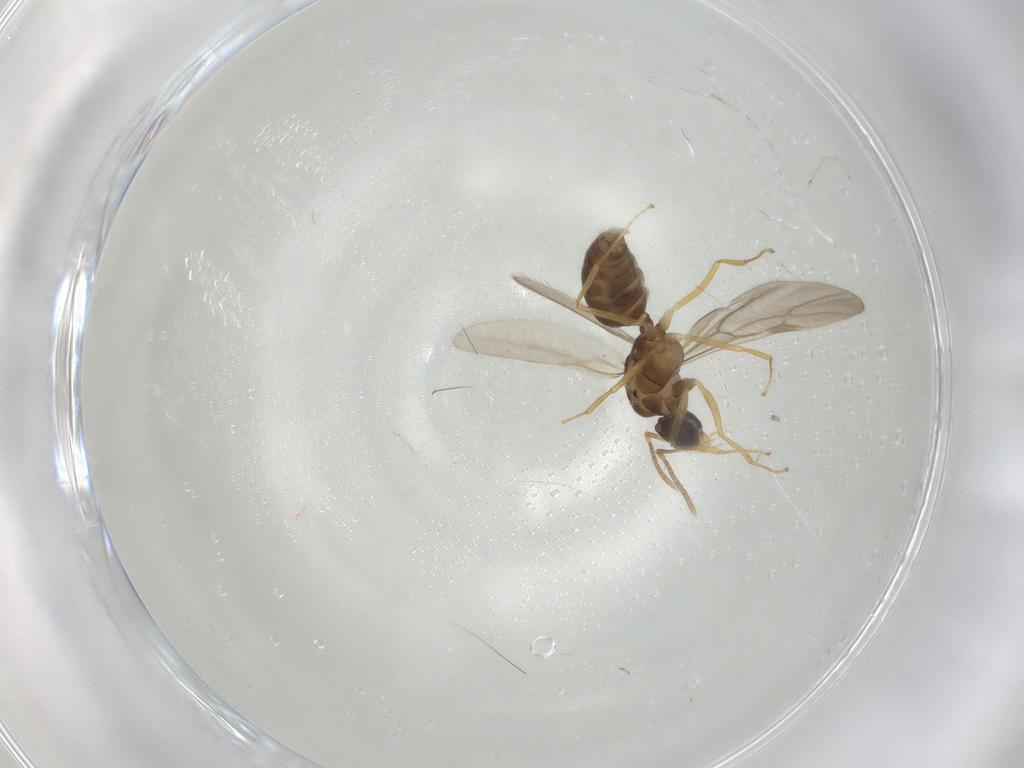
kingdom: Animalia
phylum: Arthropoda
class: Insecta
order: Hymenoptera
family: Formicidae
